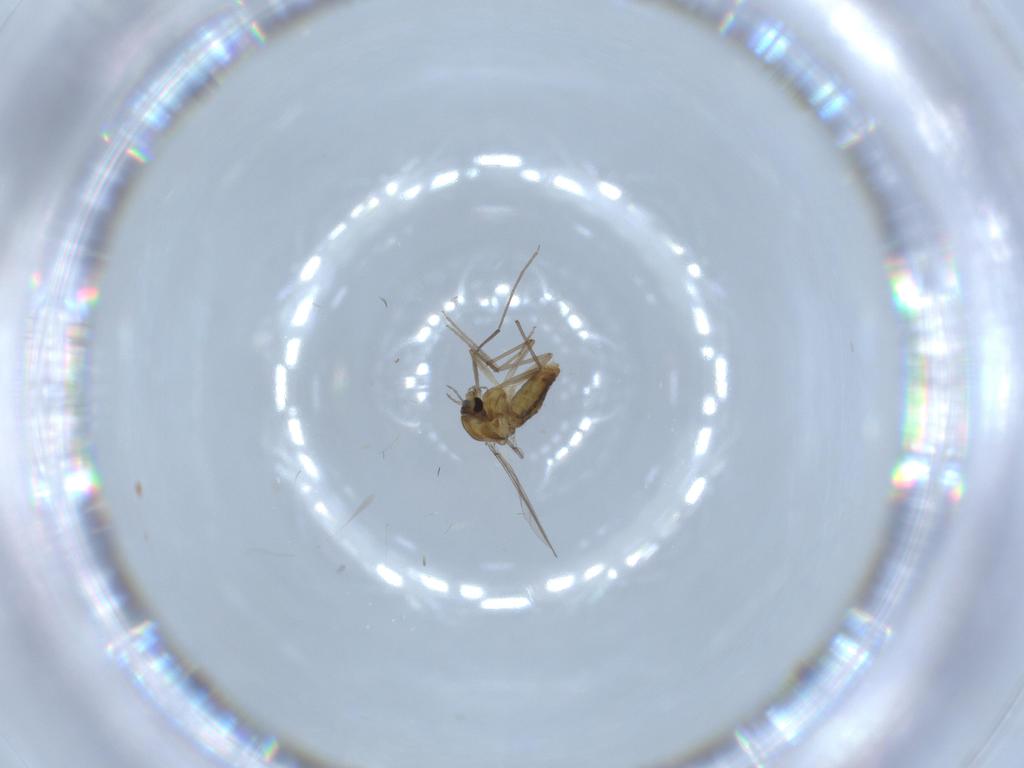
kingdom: Animalia
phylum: Arthropoda
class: Insecta
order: Diptera
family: Chironomidae
